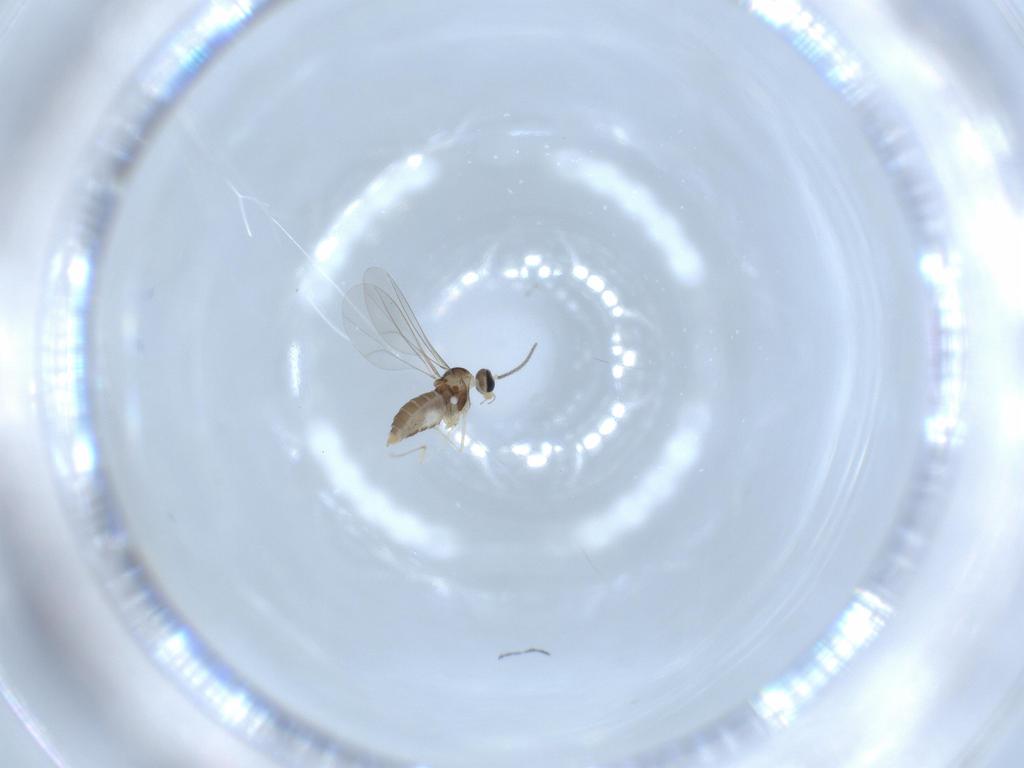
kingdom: Animalia
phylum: Arthropoda
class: Insecta
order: Diptera
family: Cecidomyiidae
